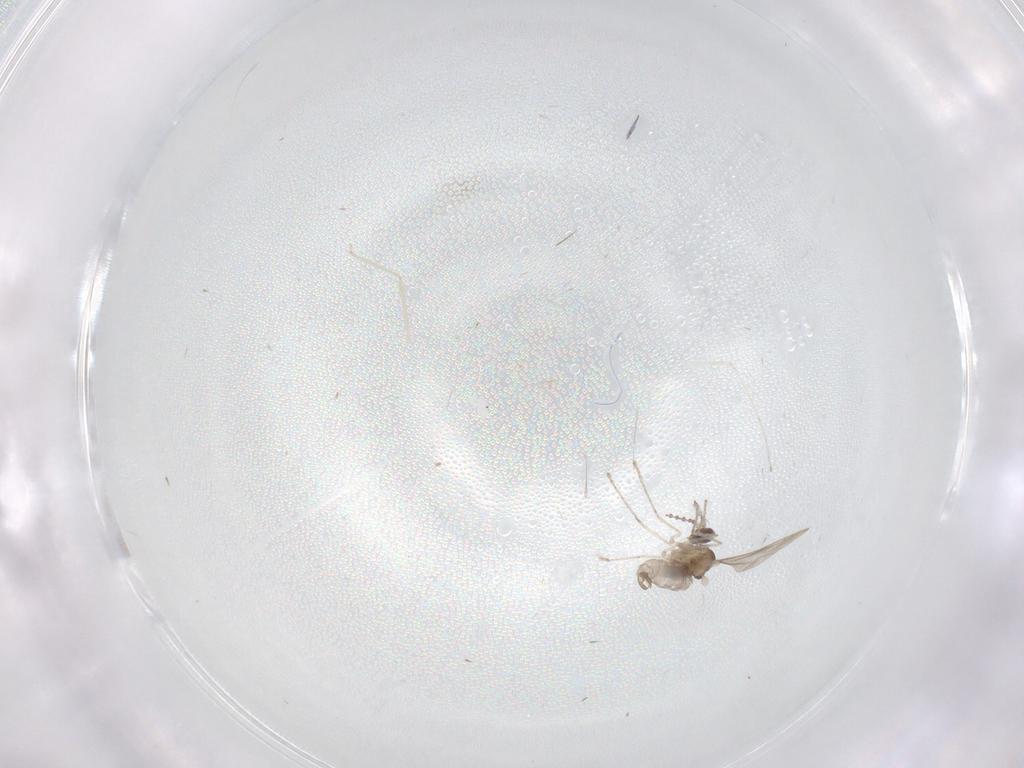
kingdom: Animalia
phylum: Arthropoda
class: Insecta
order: Diptera
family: Cecidomyiidae
